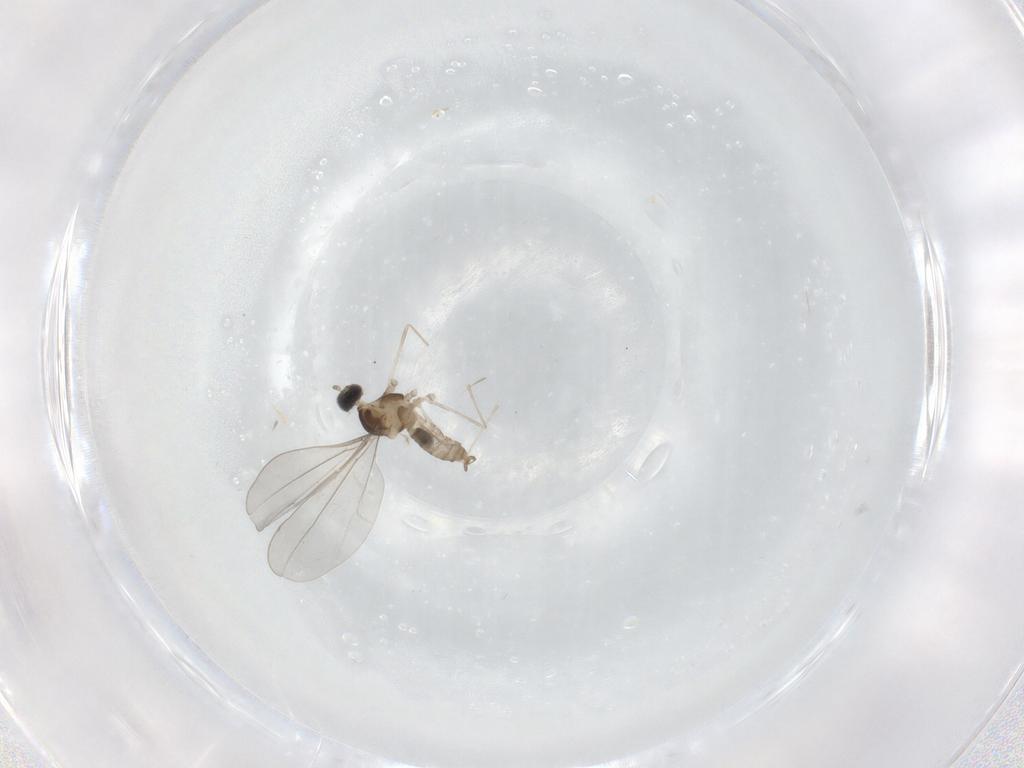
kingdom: Animalia
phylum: Arthropoda
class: Insecta
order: Diptera
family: Cecidomyiidae
